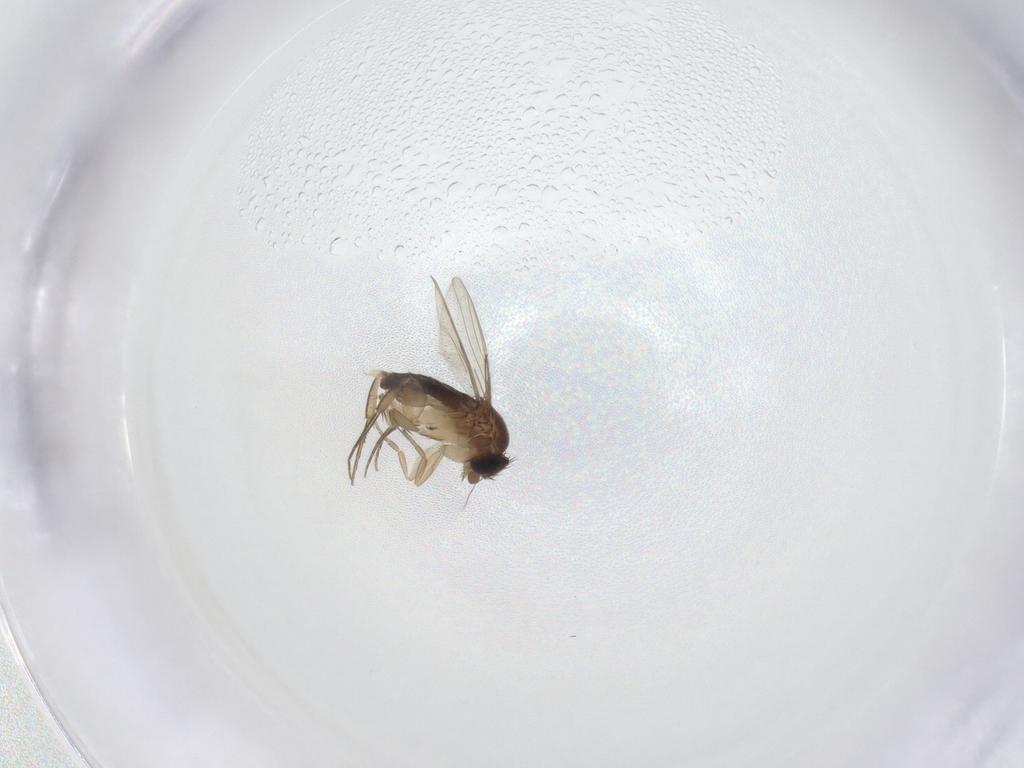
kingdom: Animalia
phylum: Arthropoda
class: Insecta
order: Diptera
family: Phoridae
